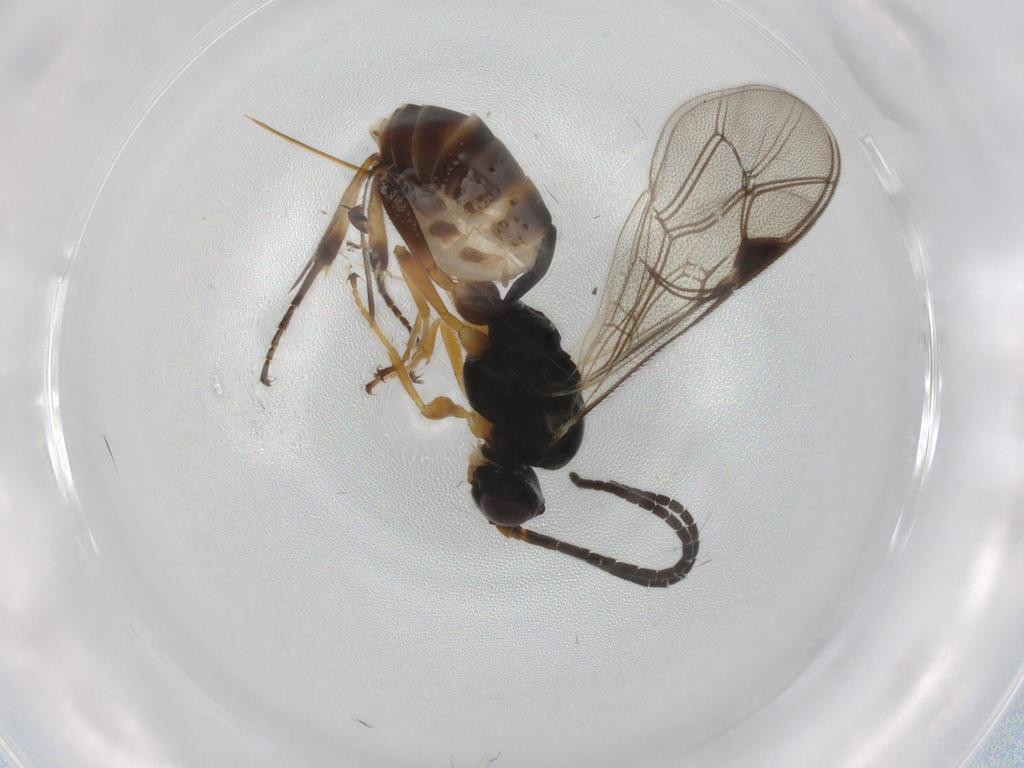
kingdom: Animalia
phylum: Arthropoda
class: Insecta
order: Hymenoptera
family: Ichneumonidae
